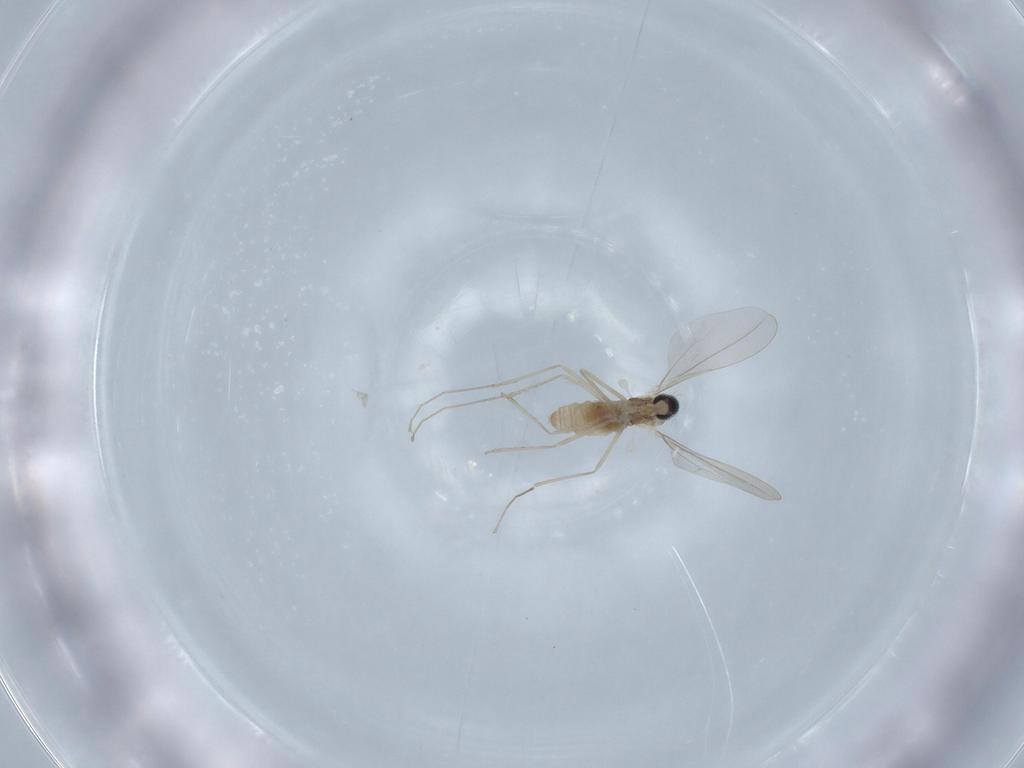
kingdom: Animalia
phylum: Arthropoda
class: Insecta
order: Diptera
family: Cecidomyiidae
